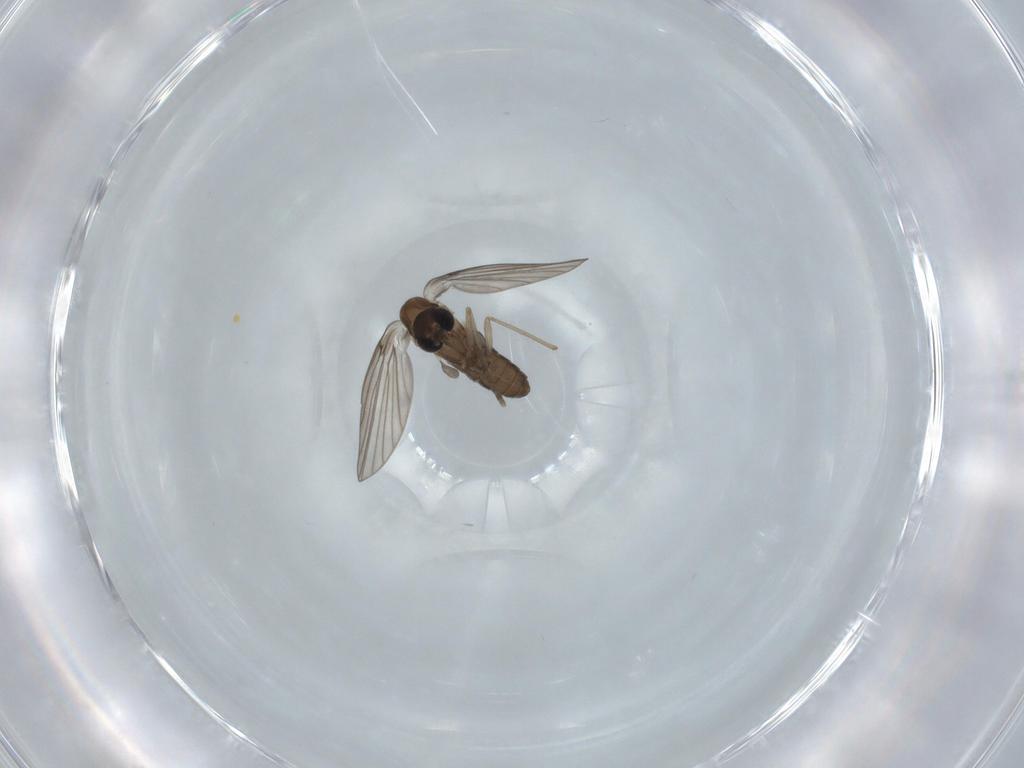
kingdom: Animalia
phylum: Arthropoda
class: Insecta
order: Diptera
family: Psychodidae
